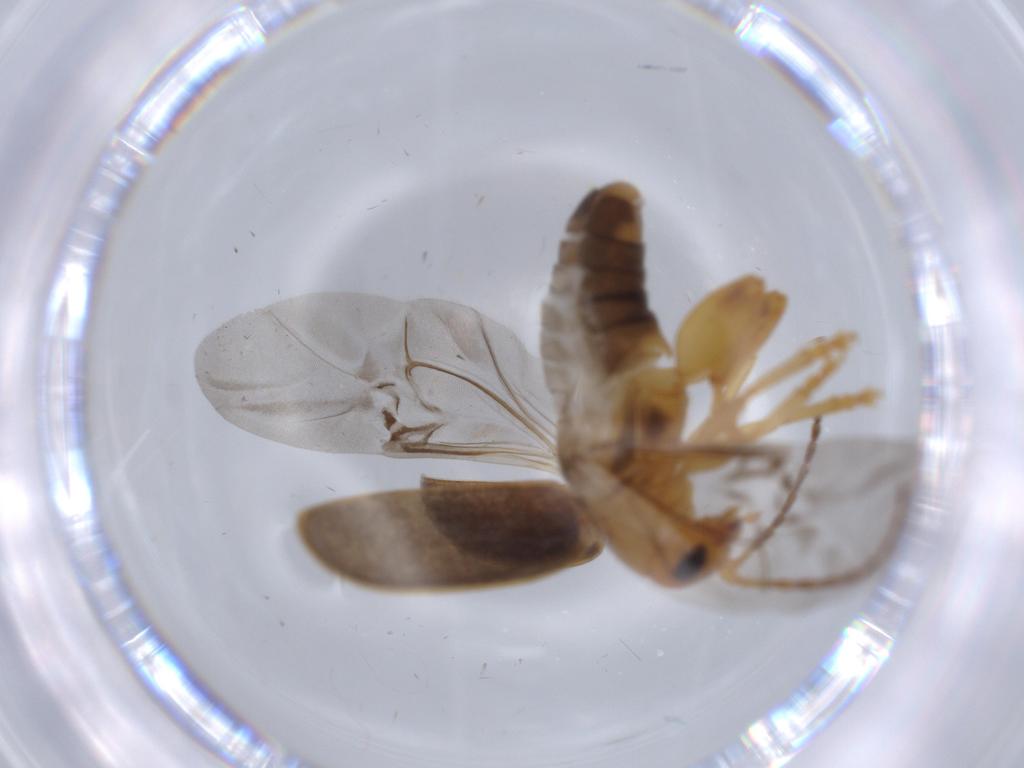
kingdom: Animalia
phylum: Arthropoda
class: Insecta
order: Coleoptera
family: Chrysomelidae
